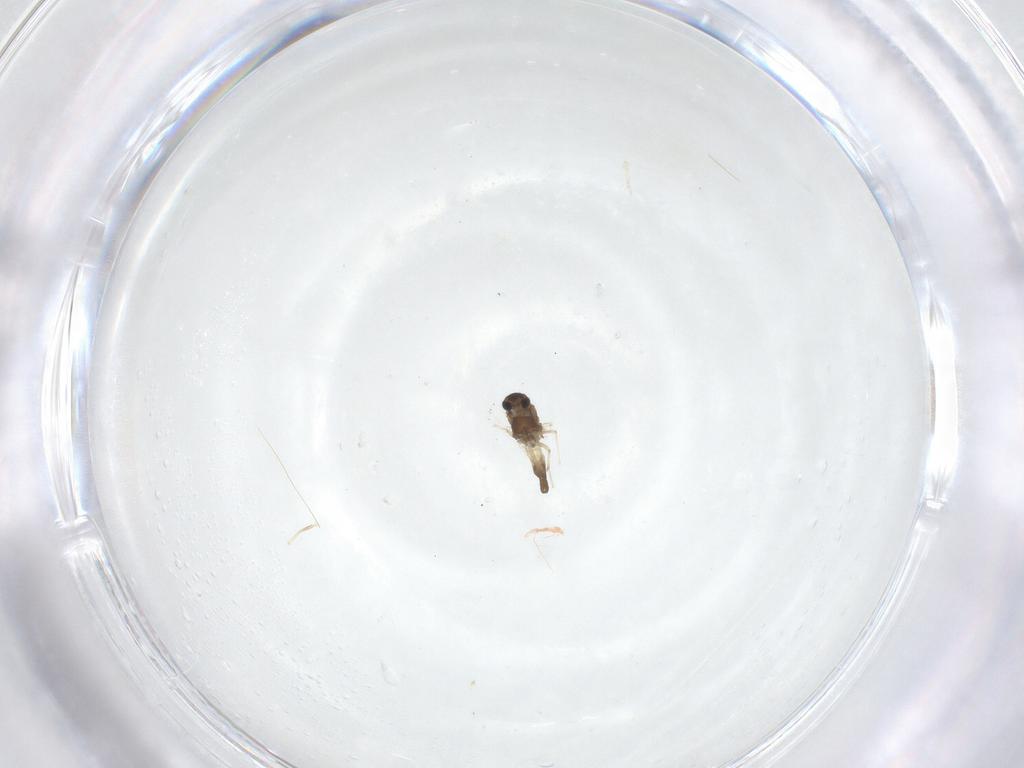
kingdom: Animalia
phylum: Arthropoda
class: Insecta
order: Diptera
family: Chironomidae
